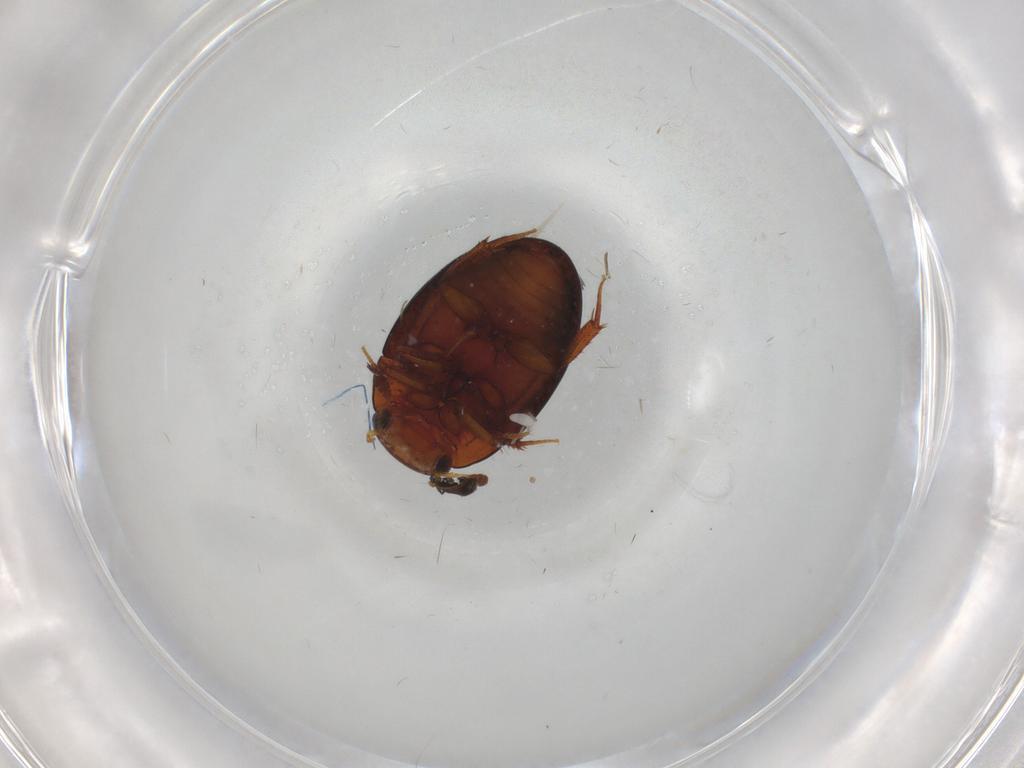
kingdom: Animalia
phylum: Arthropoda
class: Insecta
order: Coleoptera
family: Hydrophilidae
